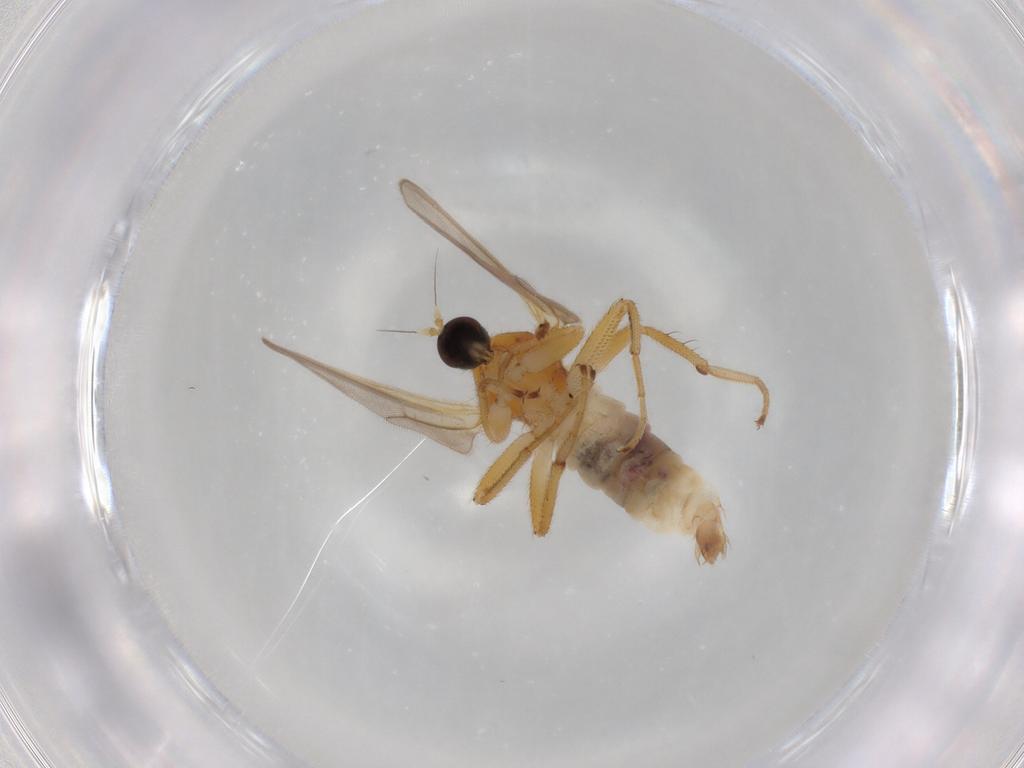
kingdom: Animalia
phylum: Arthropoda
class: Insecta
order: Diptera
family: Hybotidae
